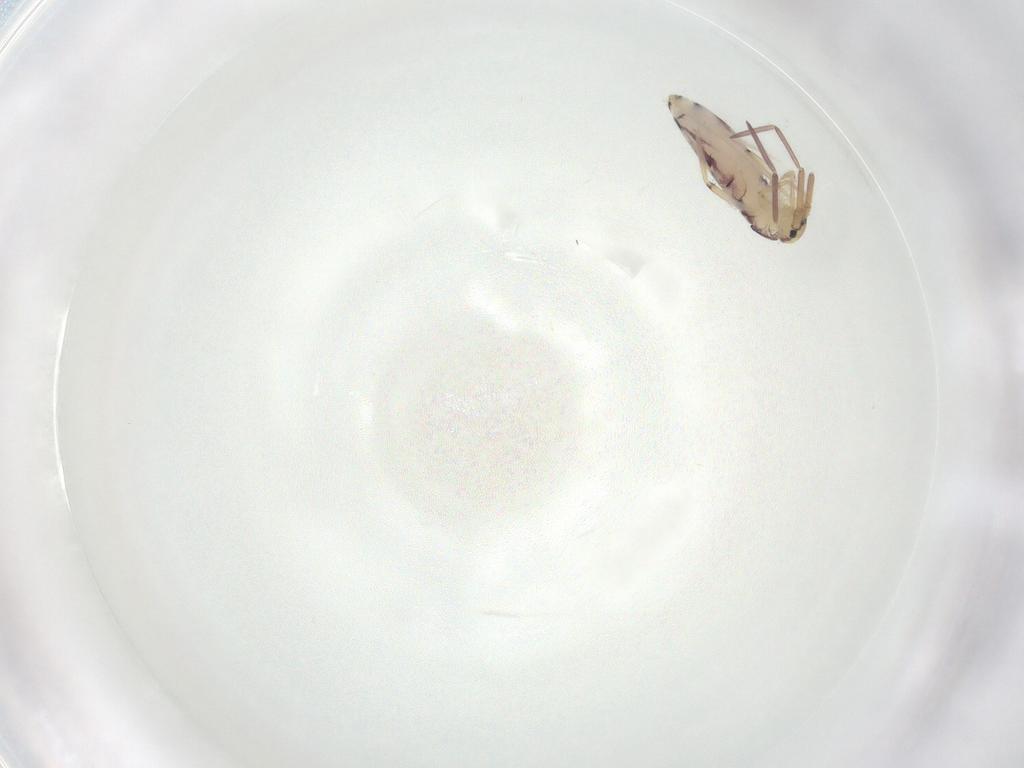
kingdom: Animalia
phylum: Arthropoda
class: Collembola
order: Entomobryomorpha
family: Entomobryidae
